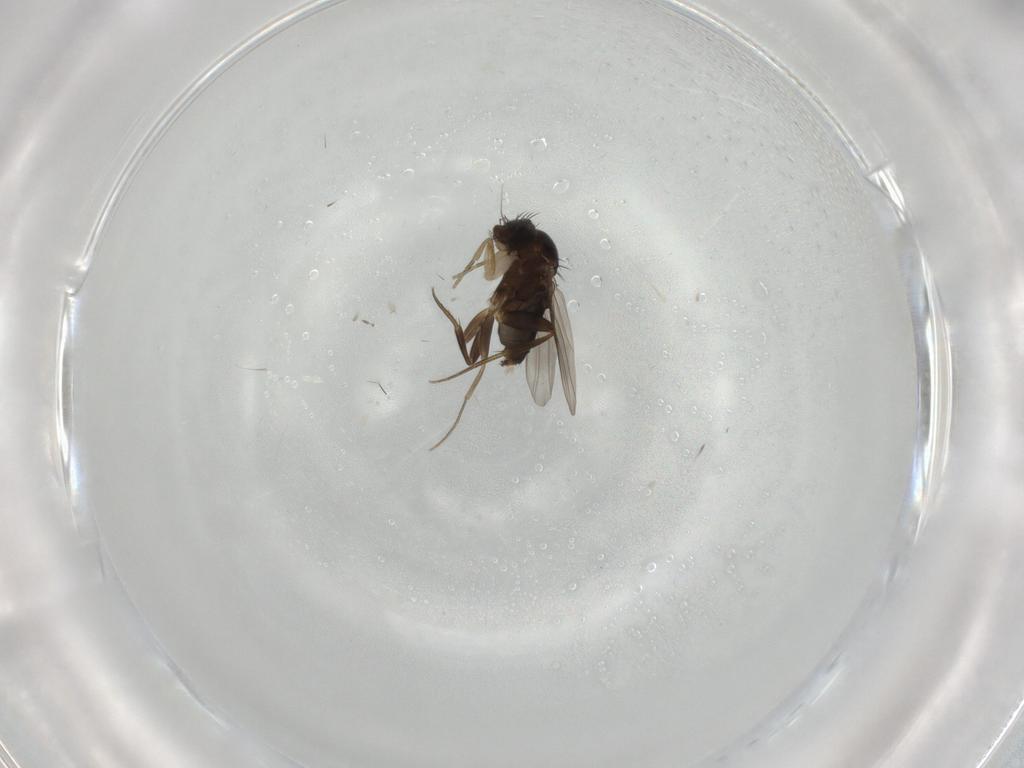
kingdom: Animalia
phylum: Arthropoda
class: Insecta
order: Diptera
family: Phoridae
